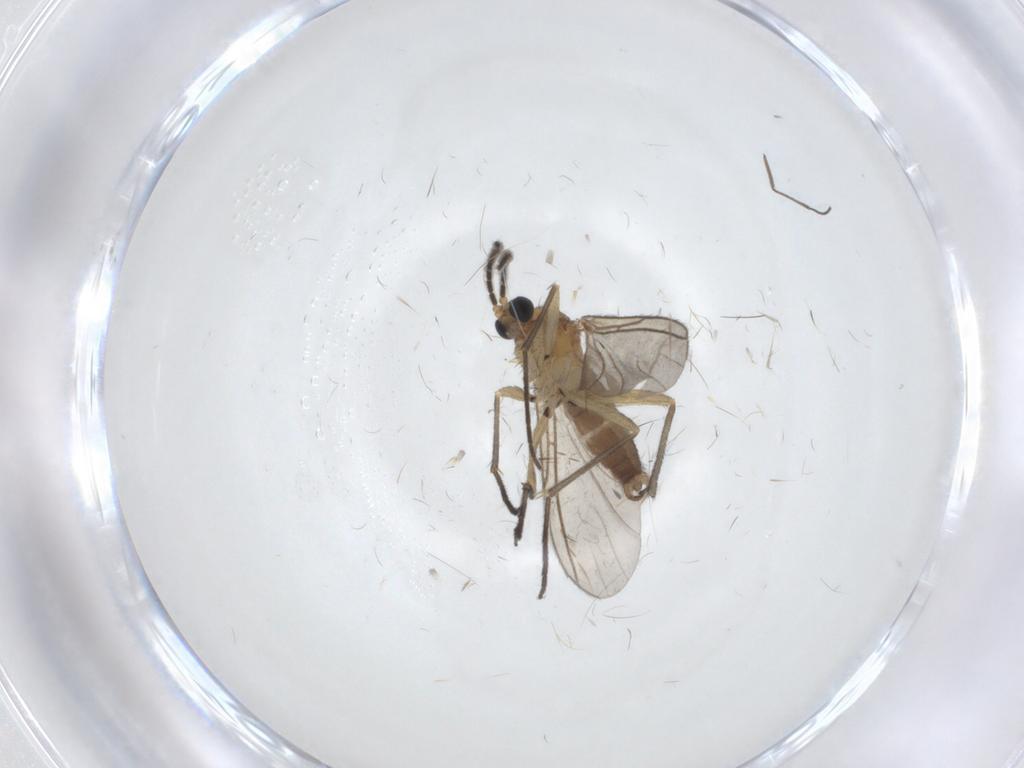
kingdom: Animalia
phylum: Arthropoda
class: Insecta
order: Diptera
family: Sciaridae
